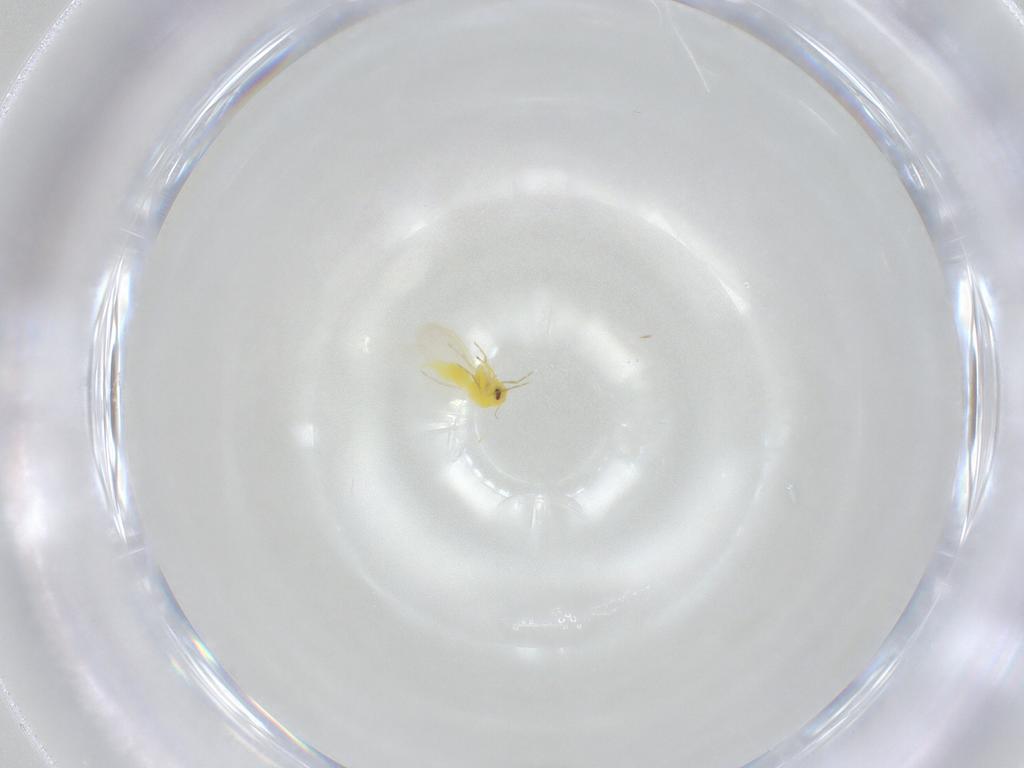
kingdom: Animalia
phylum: Arthropoda
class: Insecta
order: Hemiptera
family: Aleyrodidae
